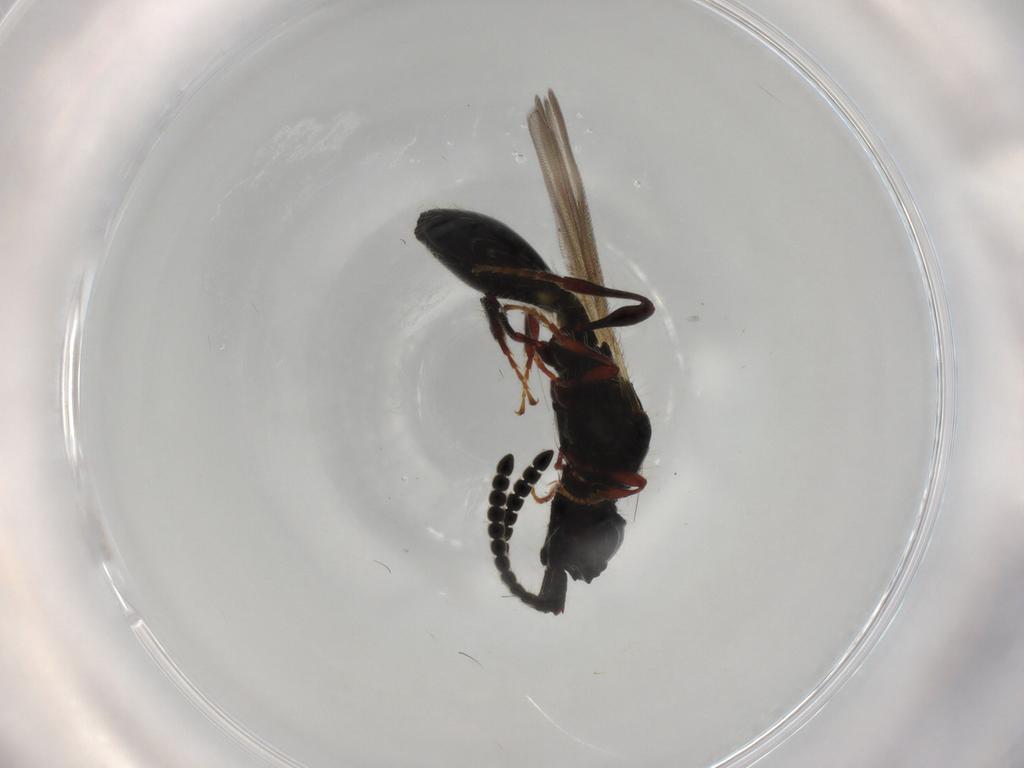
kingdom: Animalia
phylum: Arthropoda
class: Insecta
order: Hymenoptera
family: Diapriidae
